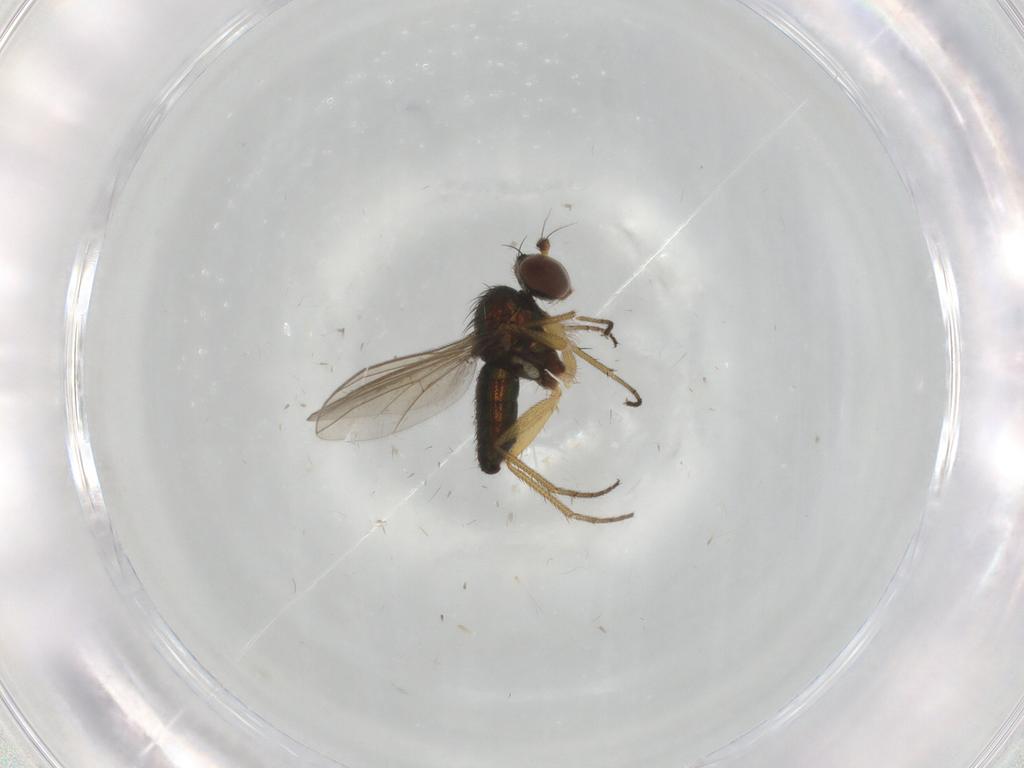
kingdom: Animalia
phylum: Arthropoda
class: Insecta
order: Diptera
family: Dolichopodidae
